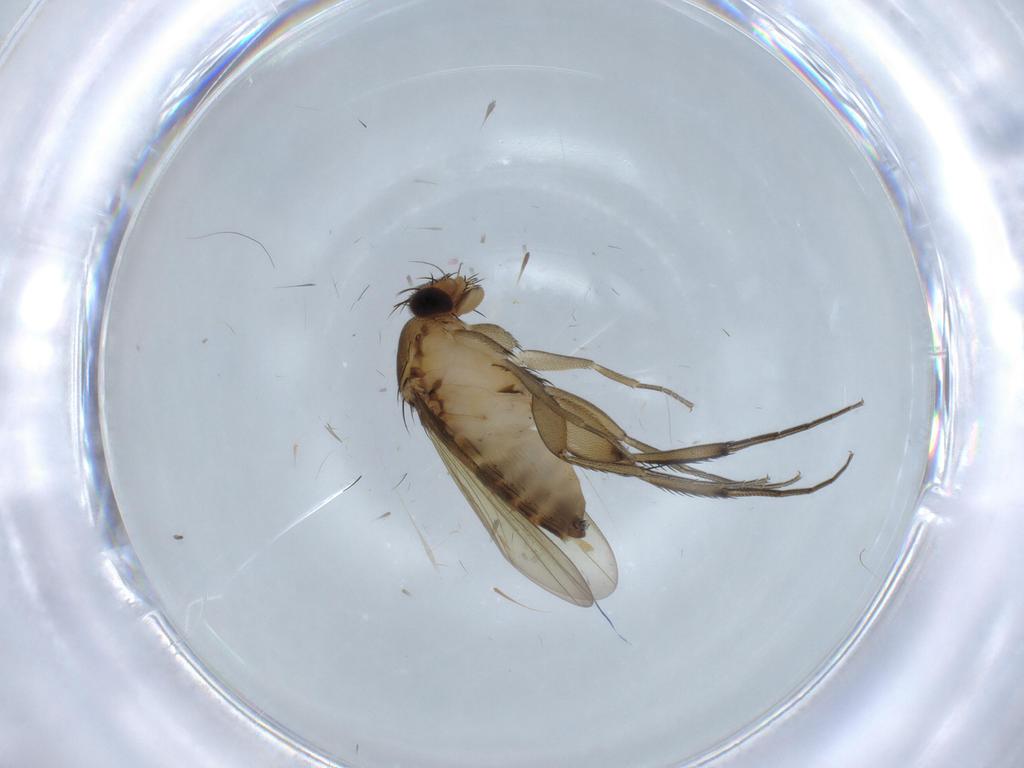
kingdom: Animalia
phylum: Arthropoda
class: Insecta
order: Diptera
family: Phoridae
